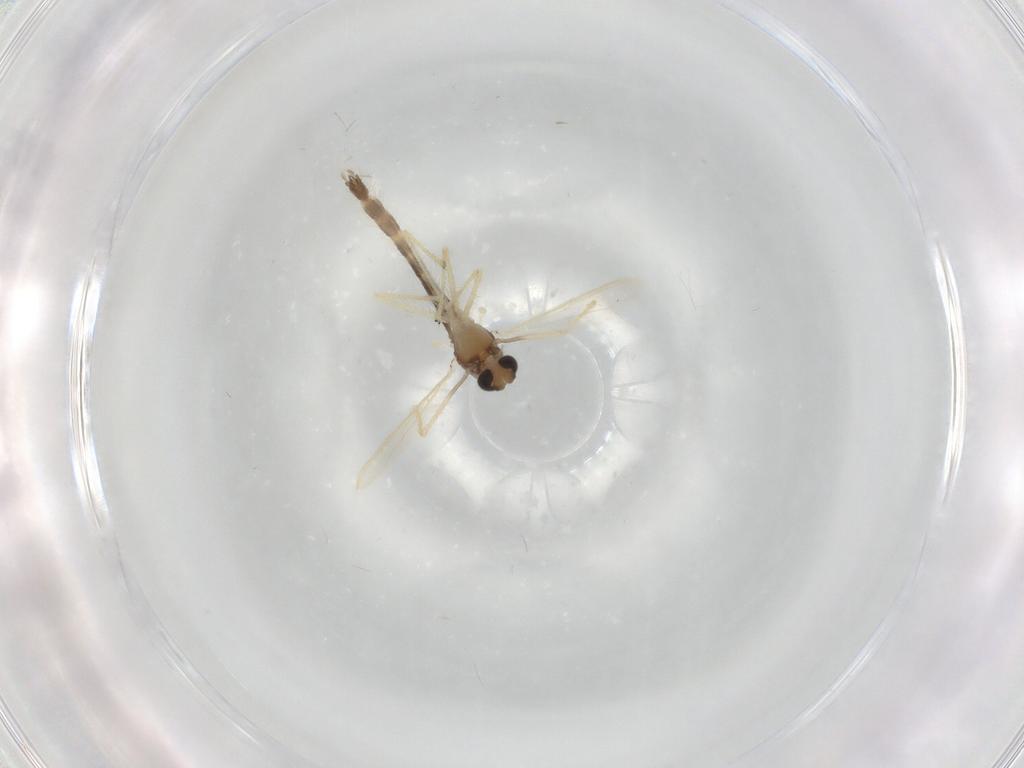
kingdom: Animalia
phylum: Arthropoda
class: Insecta
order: Diptera
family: Chironomidae
